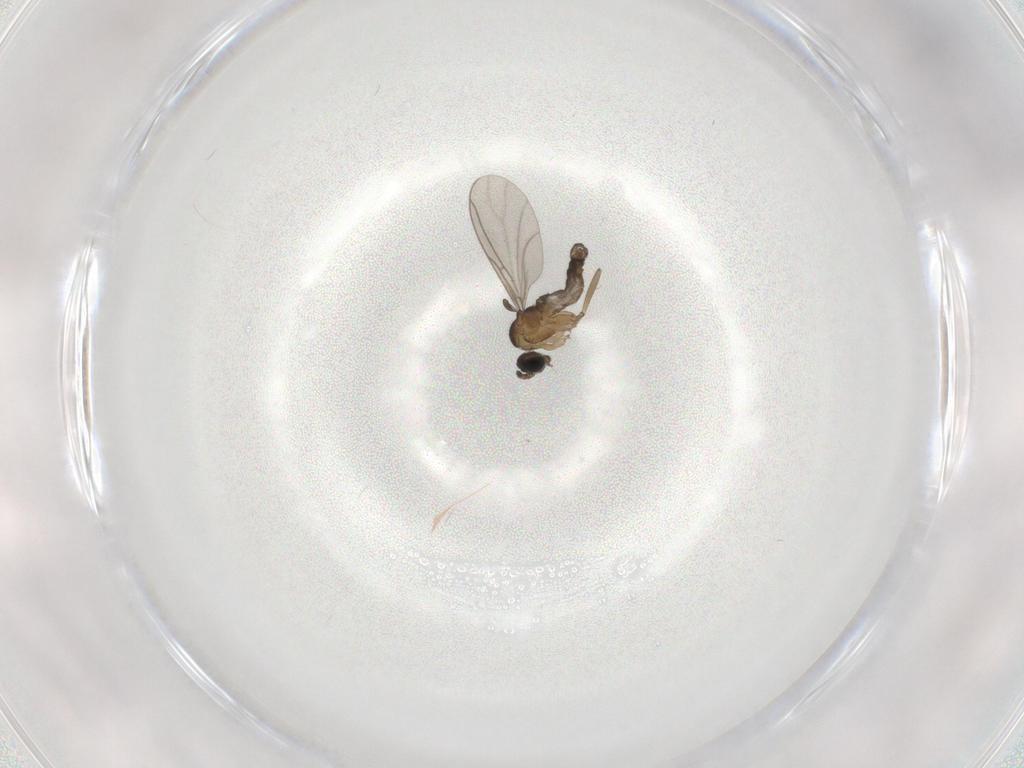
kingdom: Animalia
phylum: Arthropoda
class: Insecta
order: Diptera
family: Sciaridae
